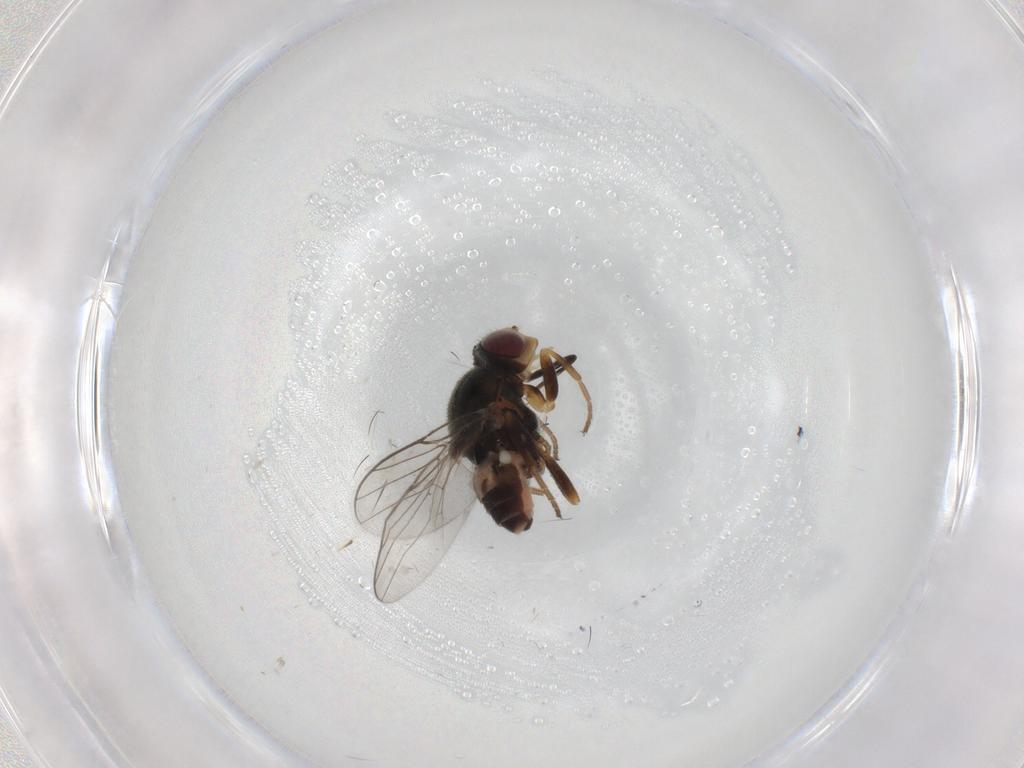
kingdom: Animalia
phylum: Arthropoda
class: Insecta
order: Diptera
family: Chloropidae
